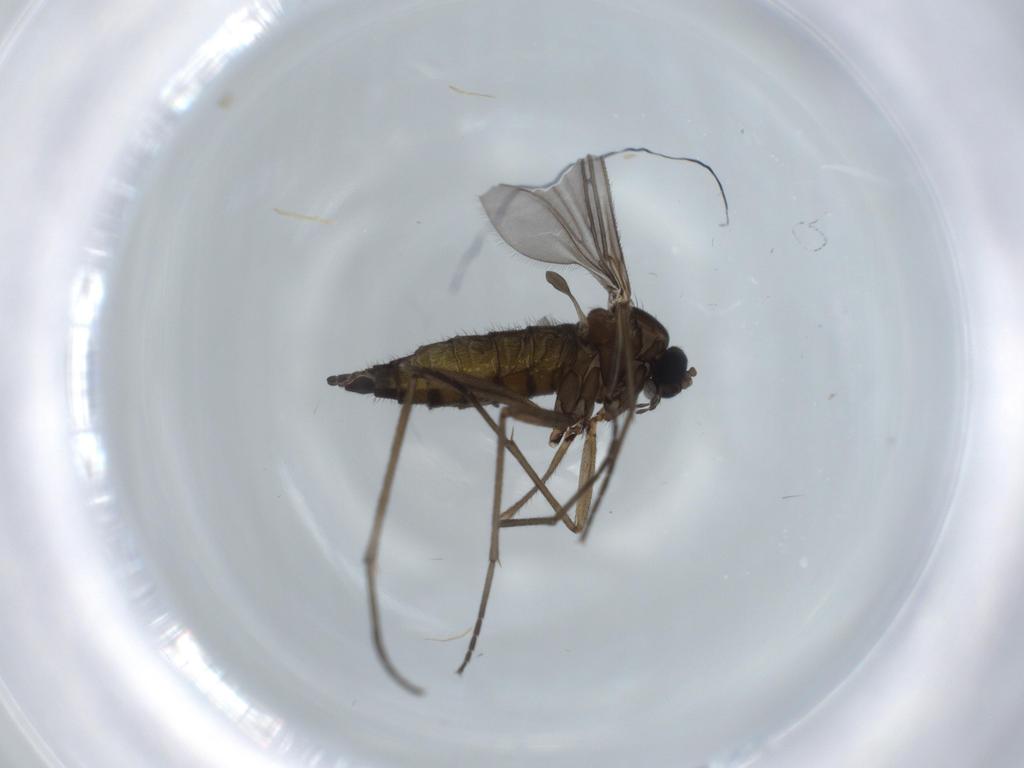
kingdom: Animalia
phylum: Arthropoda
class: Insecta
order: Diptera
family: Sciaridae
